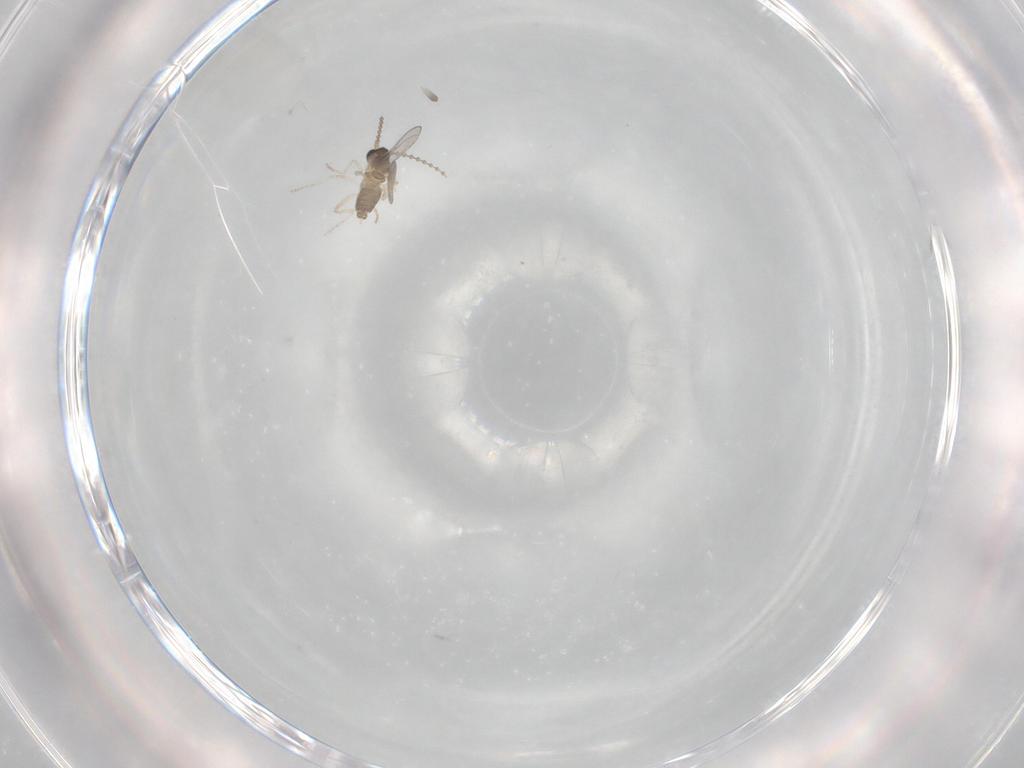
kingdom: Animalia
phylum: Arthropoda
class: Insecta
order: Diptera
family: Cecidomyiidae
